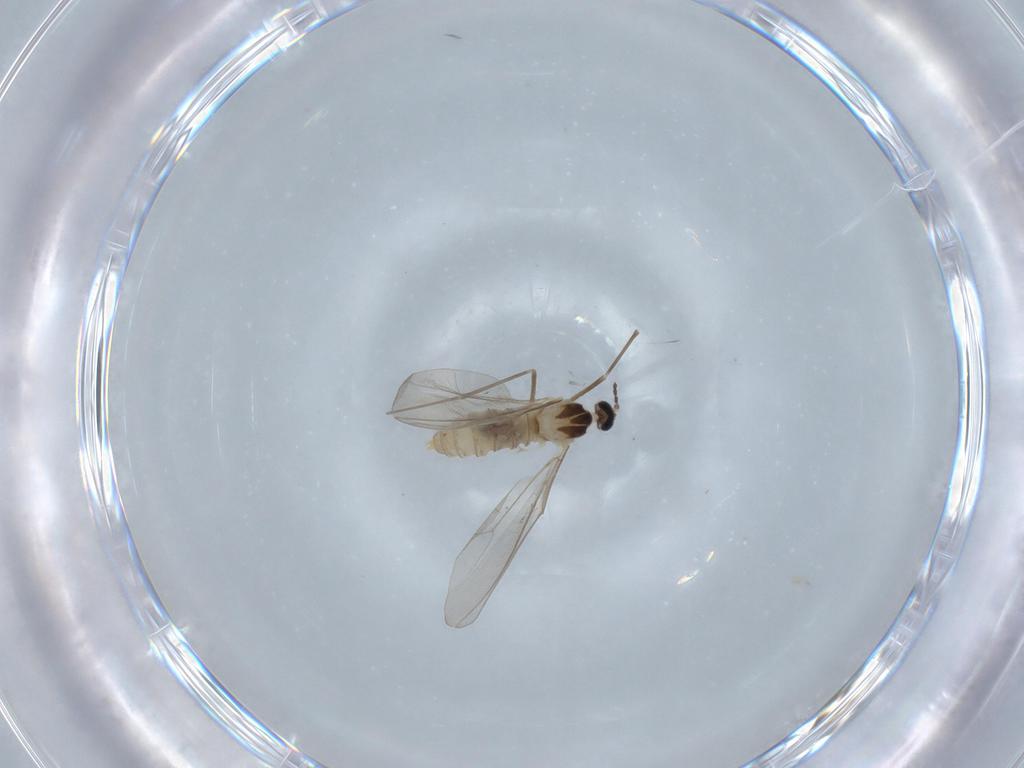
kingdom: Animalia
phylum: Arthropoda
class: Insecta
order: Diptera
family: Cecidomyiidae
